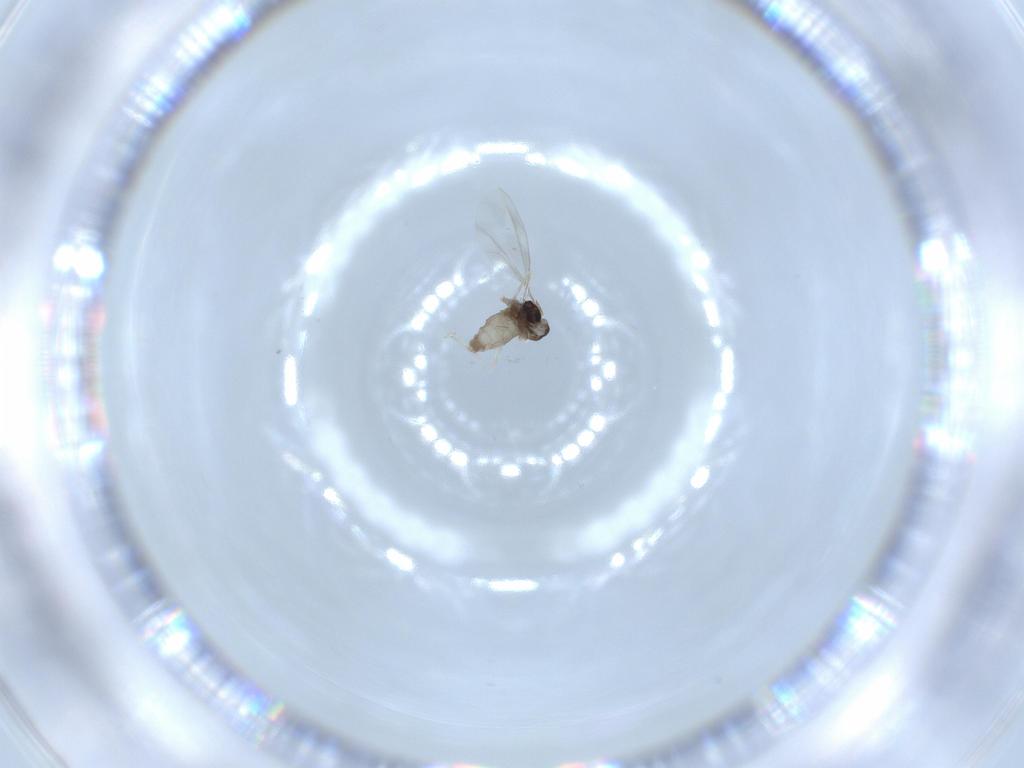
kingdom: Animalia
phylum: Arthropoda
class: Insecta
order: Diptera
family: Cecidomyiidae
